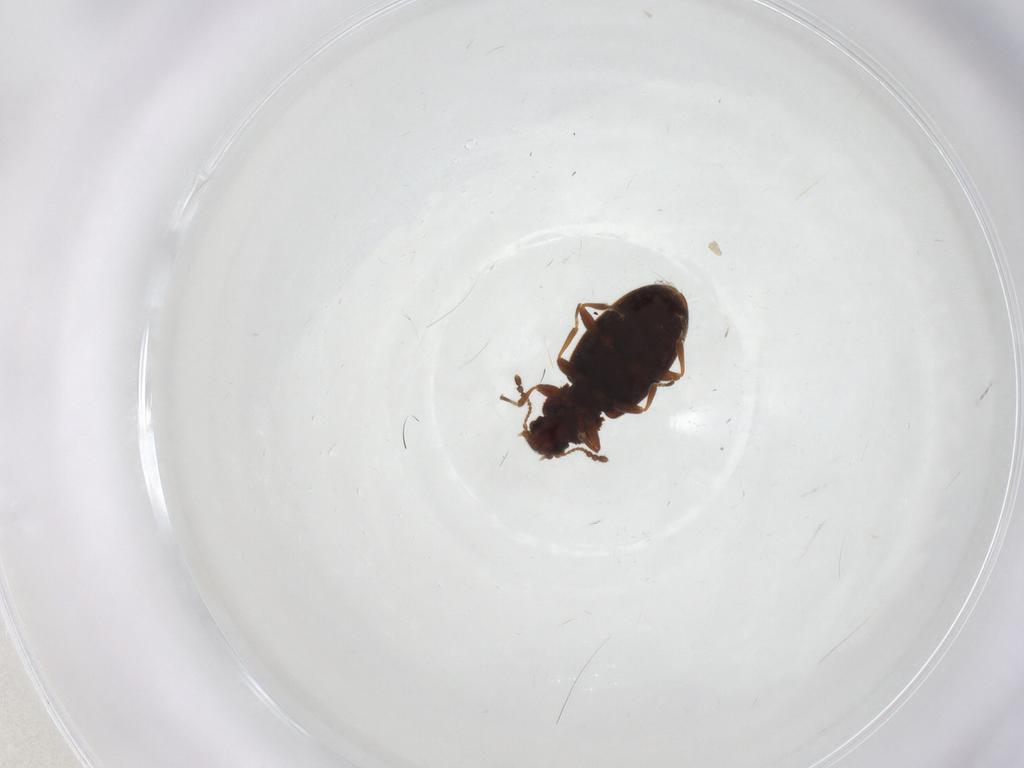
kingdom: Animalia
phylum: Arthropoda
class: Insecta
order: Coleoptera
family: Latridiidae
